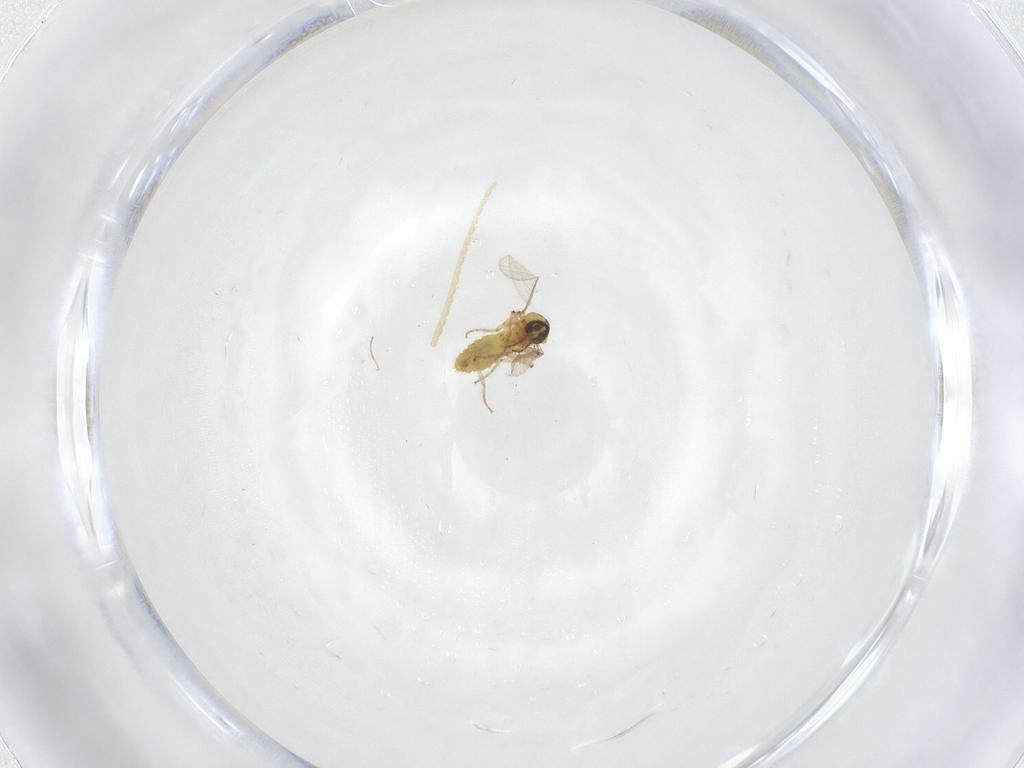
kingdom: Animalia
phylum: Arthropoda
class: Insecta
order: Diptera
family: Ceratopogonidae
